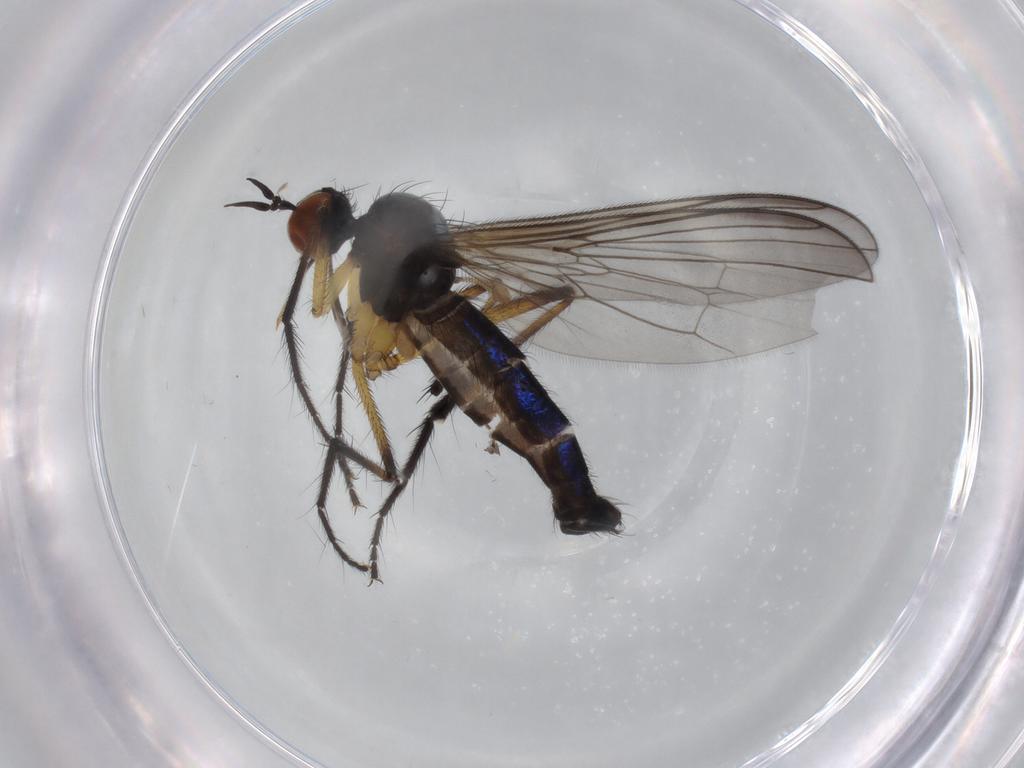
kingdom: Animalia
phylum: Arthropoda
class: Insecta
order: Diptera
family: Empididae
